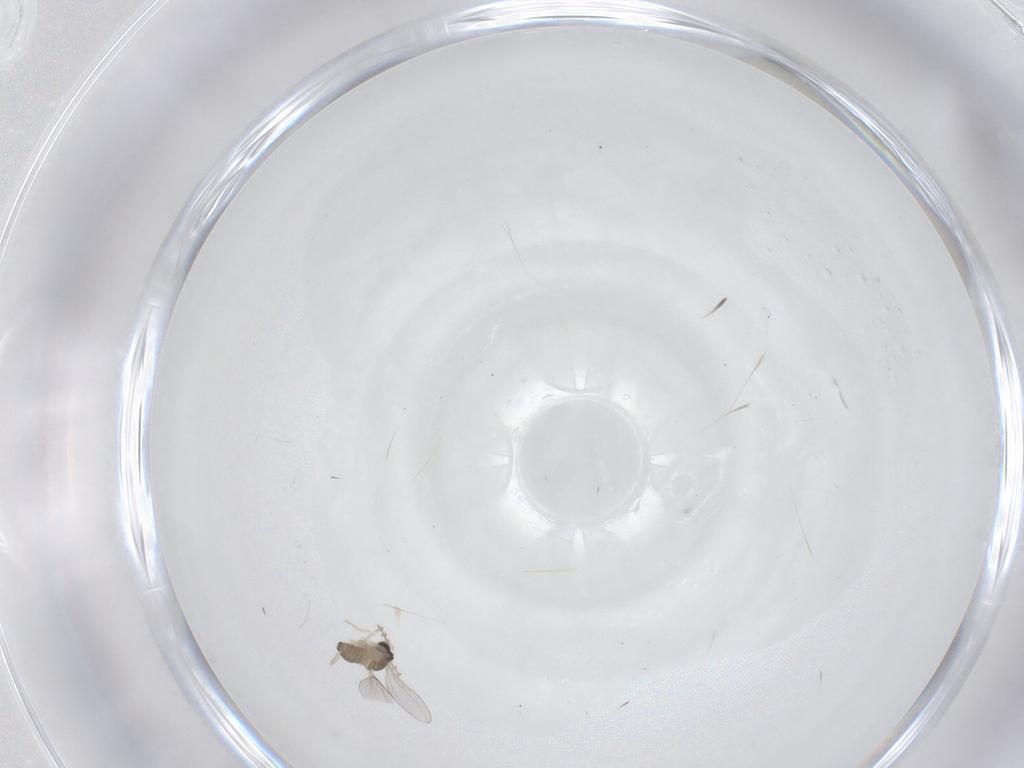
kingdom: Animalia
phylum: Arthropoda
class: Insecta
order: Diptera
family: Cecidomyiidae
